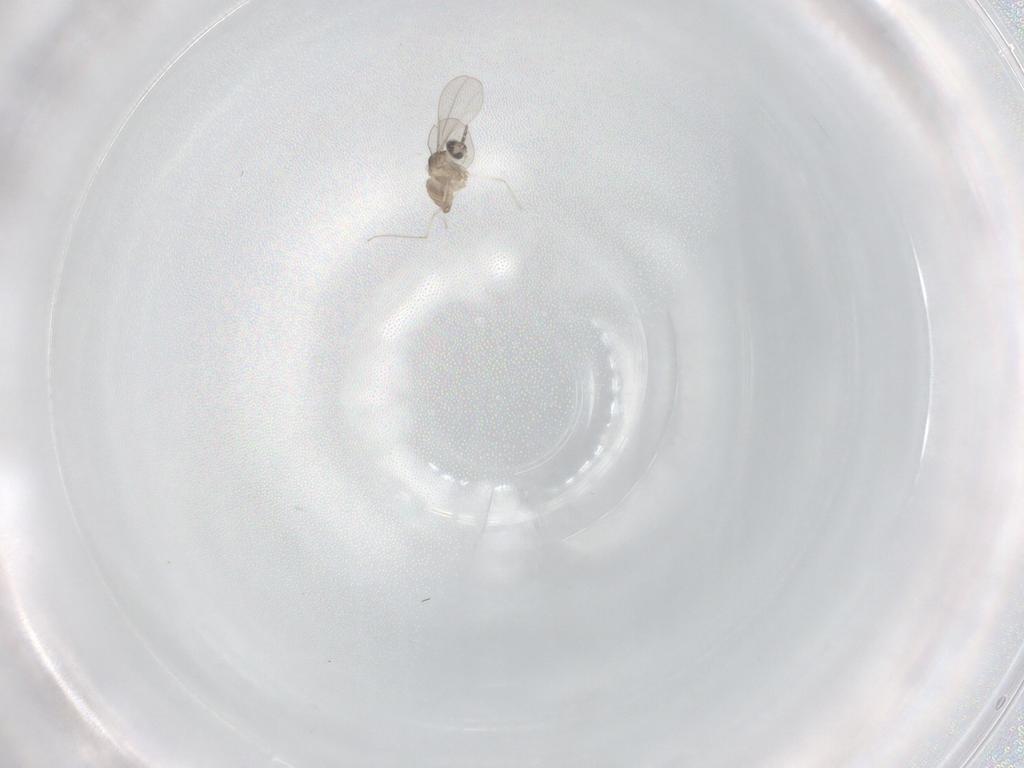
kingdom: Animalia
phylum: Arthropoda
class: Insecta
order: Diptera
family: Cecidomyiidae
